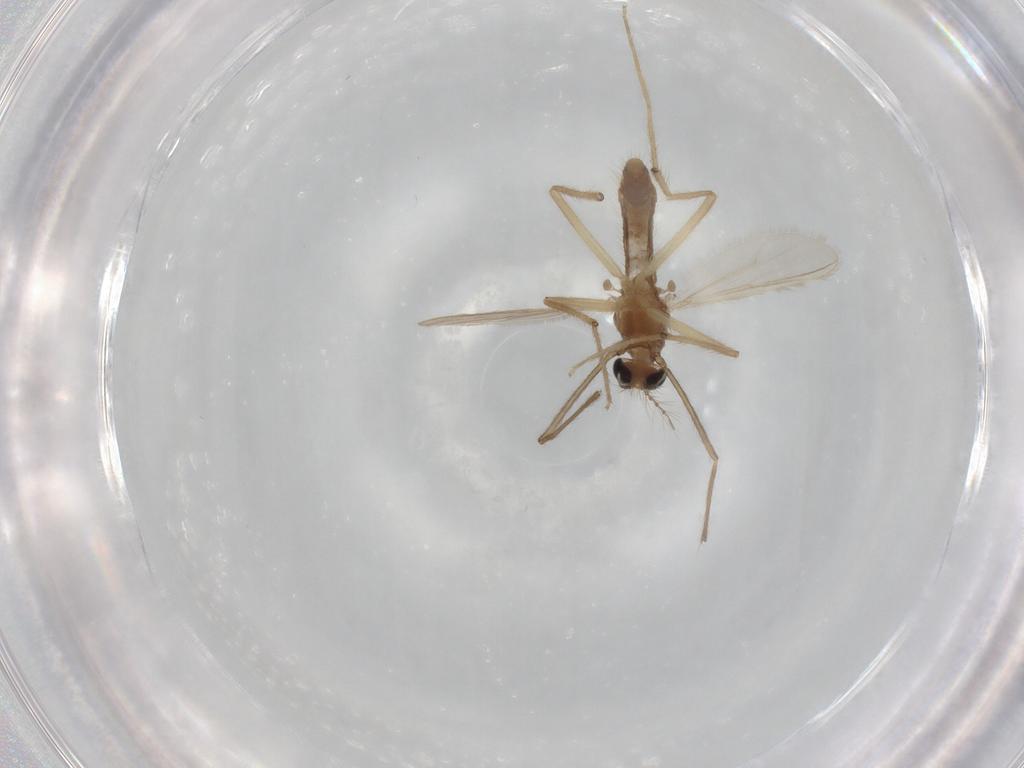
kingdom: Animalia
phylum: Arthropoda
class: Insecta
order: Diptera
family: Chironomidae
